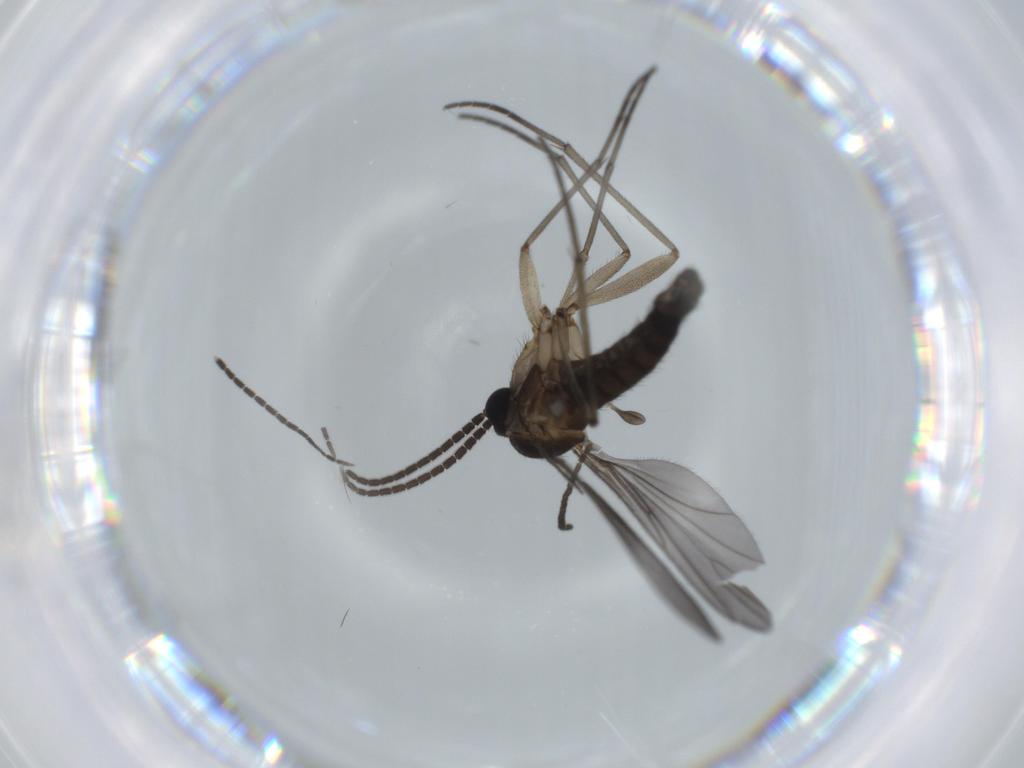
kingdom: Animalia
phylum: Arthropoda
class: Insecta
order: Diptera
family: Sciaridae
